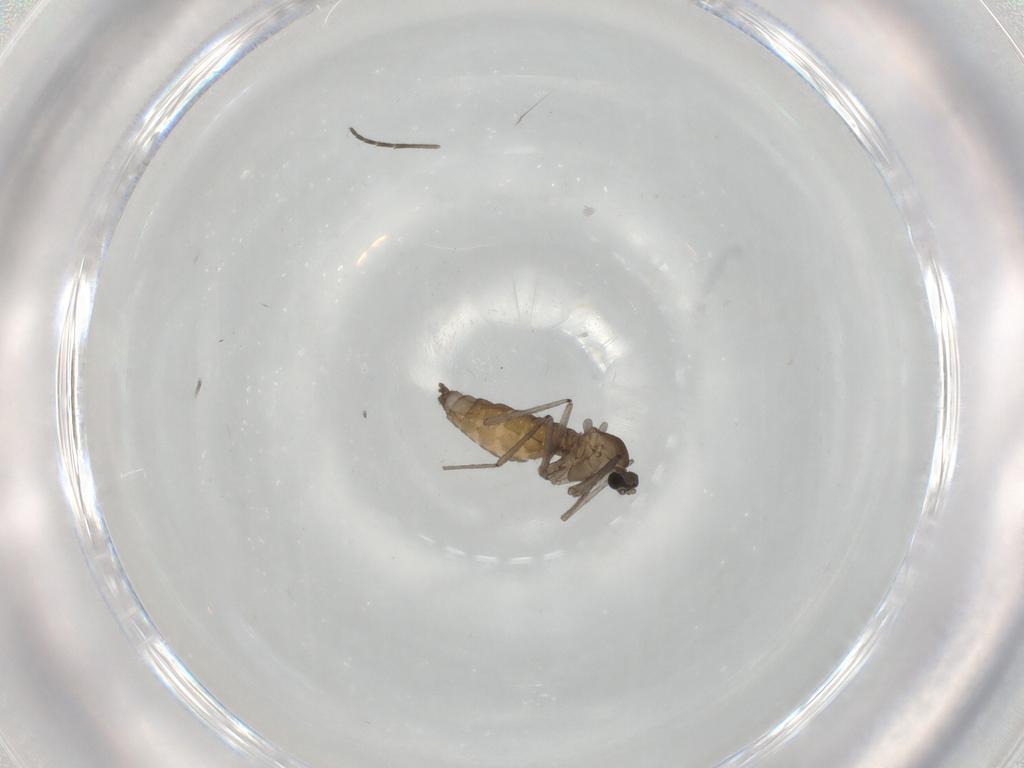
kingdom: Animalia
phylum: Arthropoda
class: Insecta
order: Diptera
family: Cecidomyiidae
